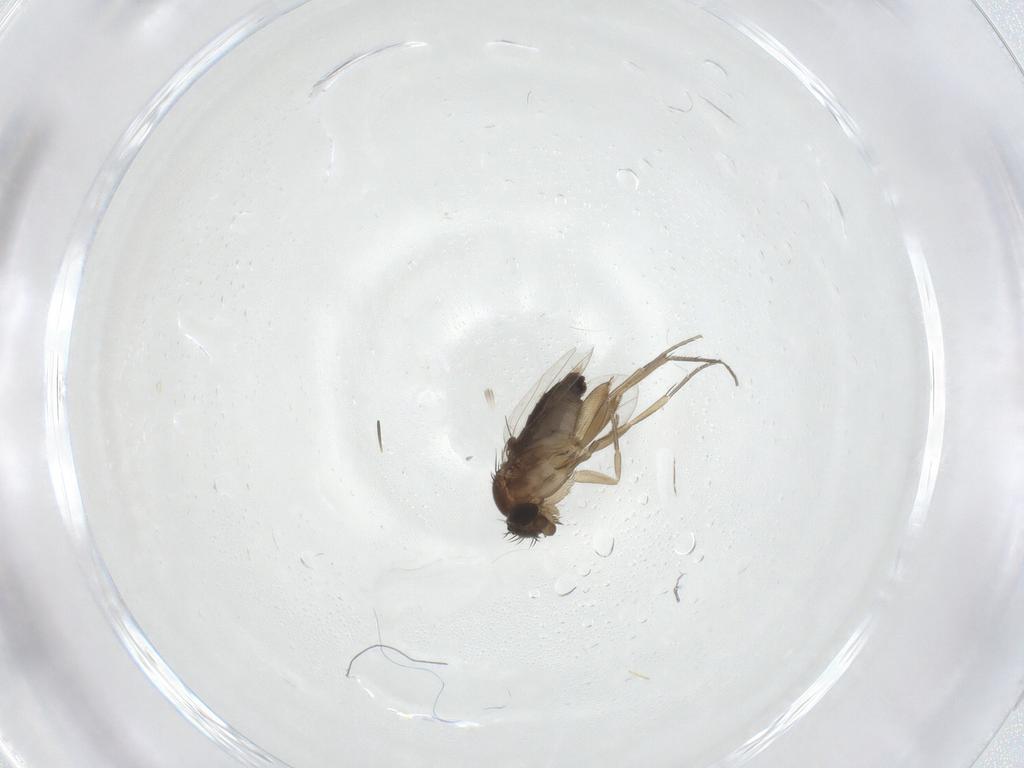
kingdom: Animalia
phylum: Arthropoda
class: Insecta
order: Diptera
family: Phoridae
